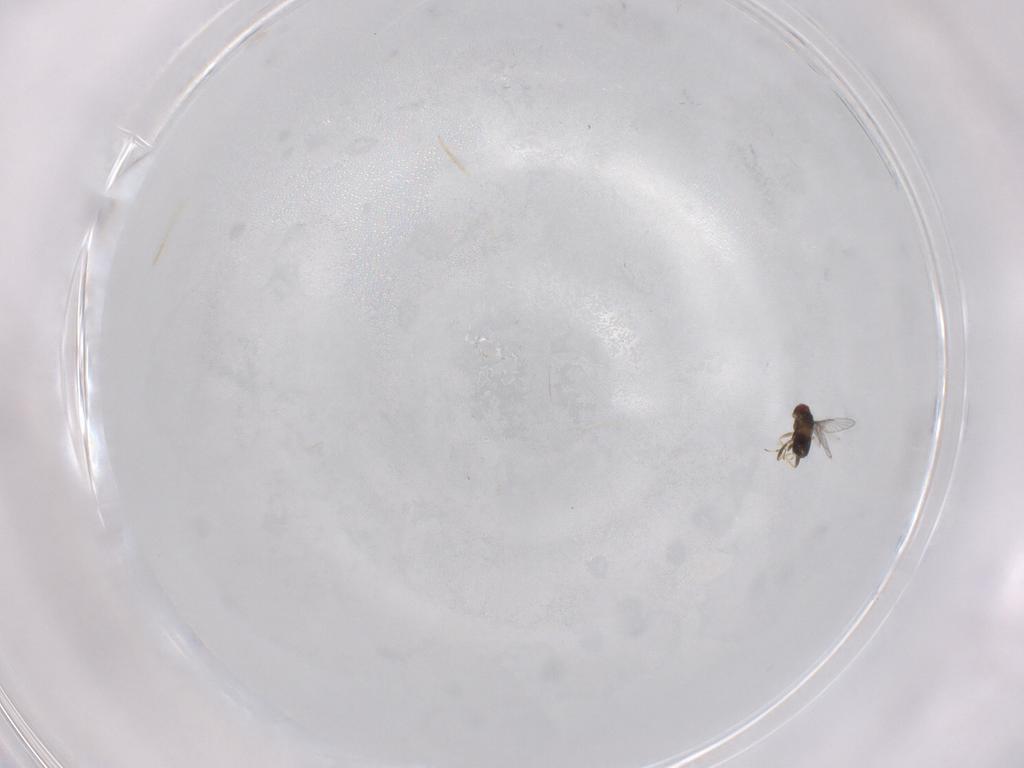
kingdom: Animalia
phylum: Arthropoda
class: Insecta
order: Hymenoptera
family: Trichogrammatidae
